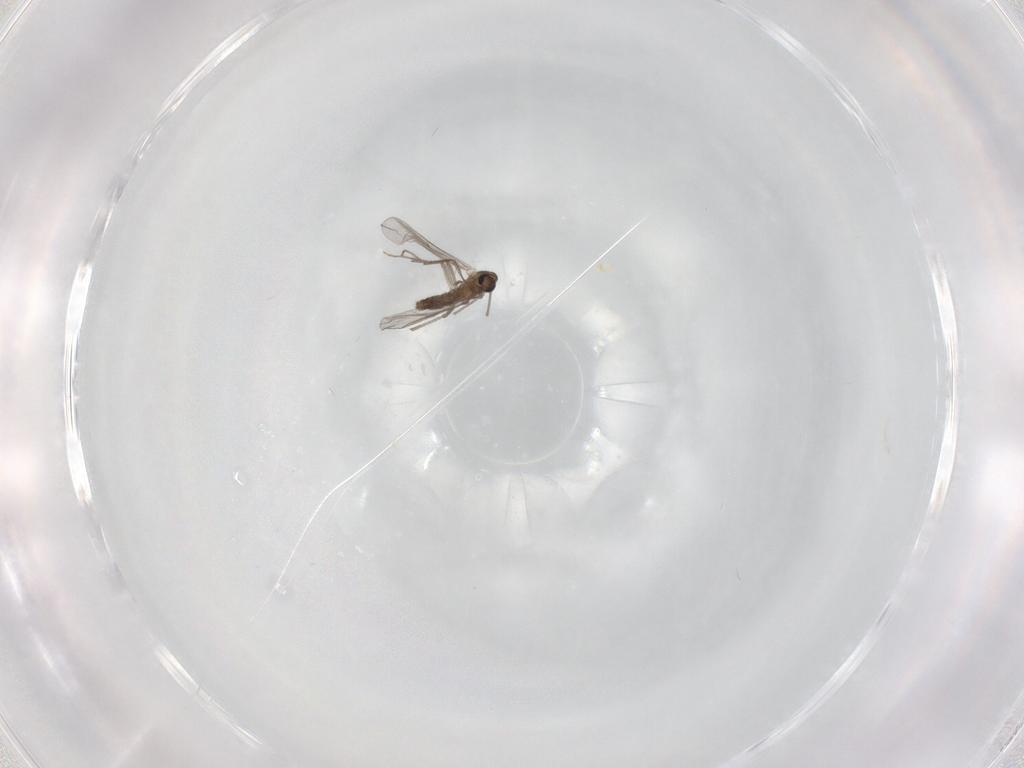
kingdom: Animalia
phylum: Arthropoda
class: Insecta
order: Diptera
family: Chironomidae
